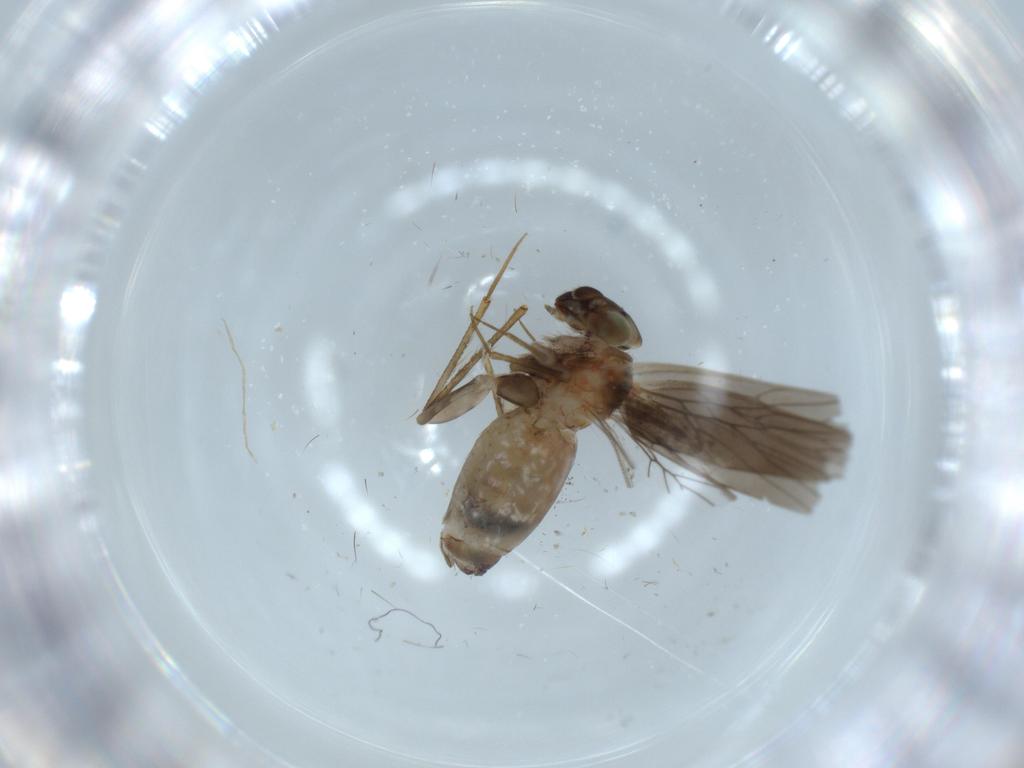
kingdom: Animalia
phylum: Arthropoda
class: Insecta
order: Psocodea
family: Lepidopsocidae
